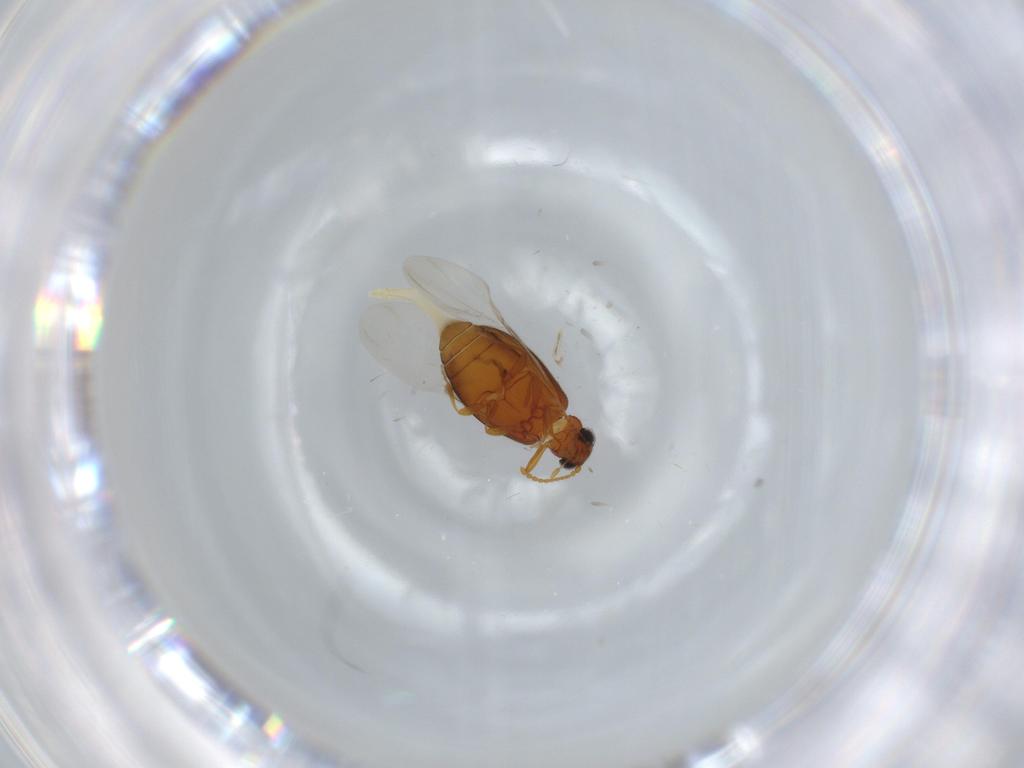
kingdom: Animalia
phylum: Arthropoda
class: Insecta
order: Coleoptera
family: Aderidae
